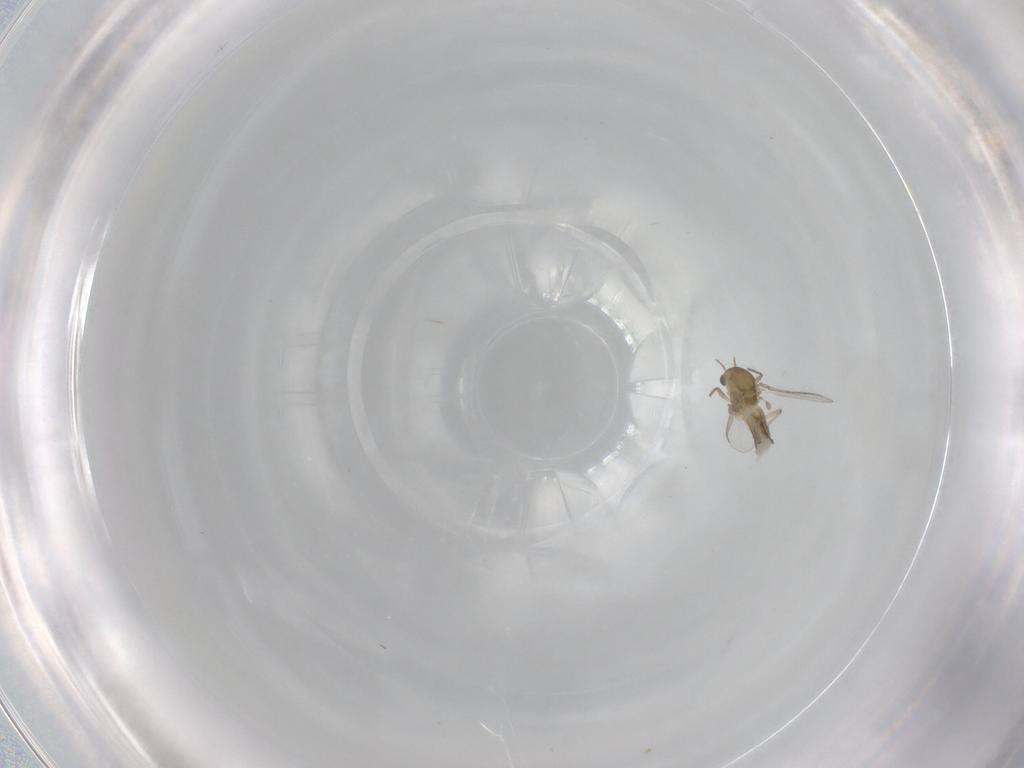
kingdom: Animalia
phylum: Arthropoda
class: Insecta
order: Diptera
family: Chironomidae
